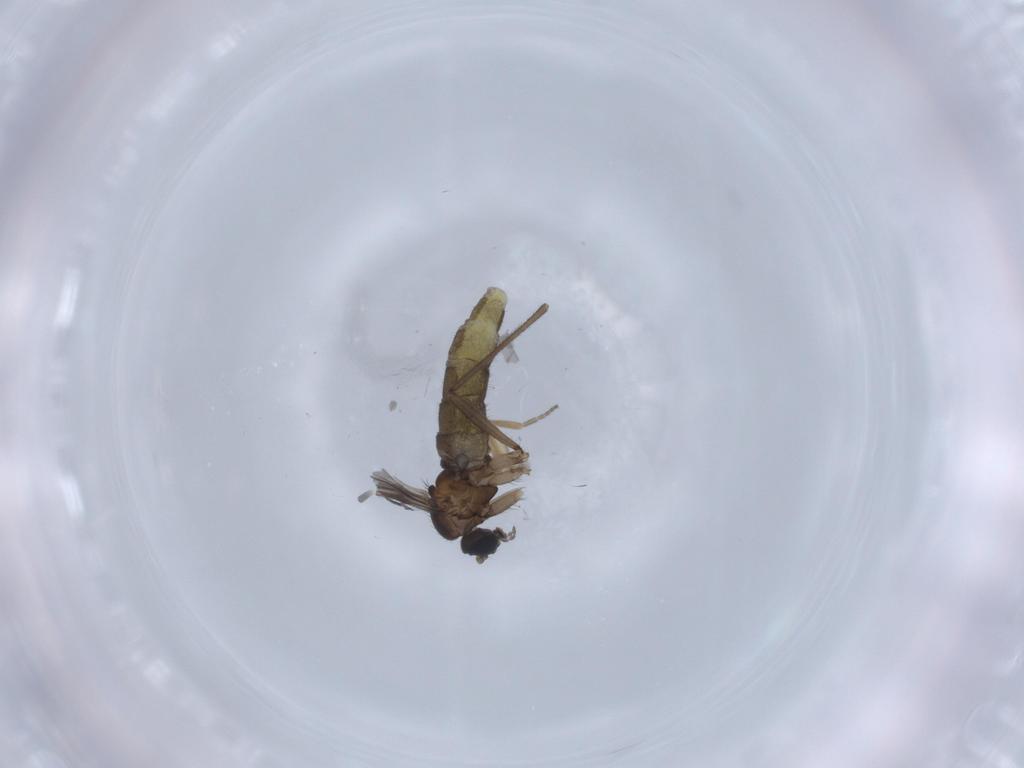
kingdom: Animalia
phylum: Arthropoda
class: Insecta
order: Diptera
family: Sciaridae
